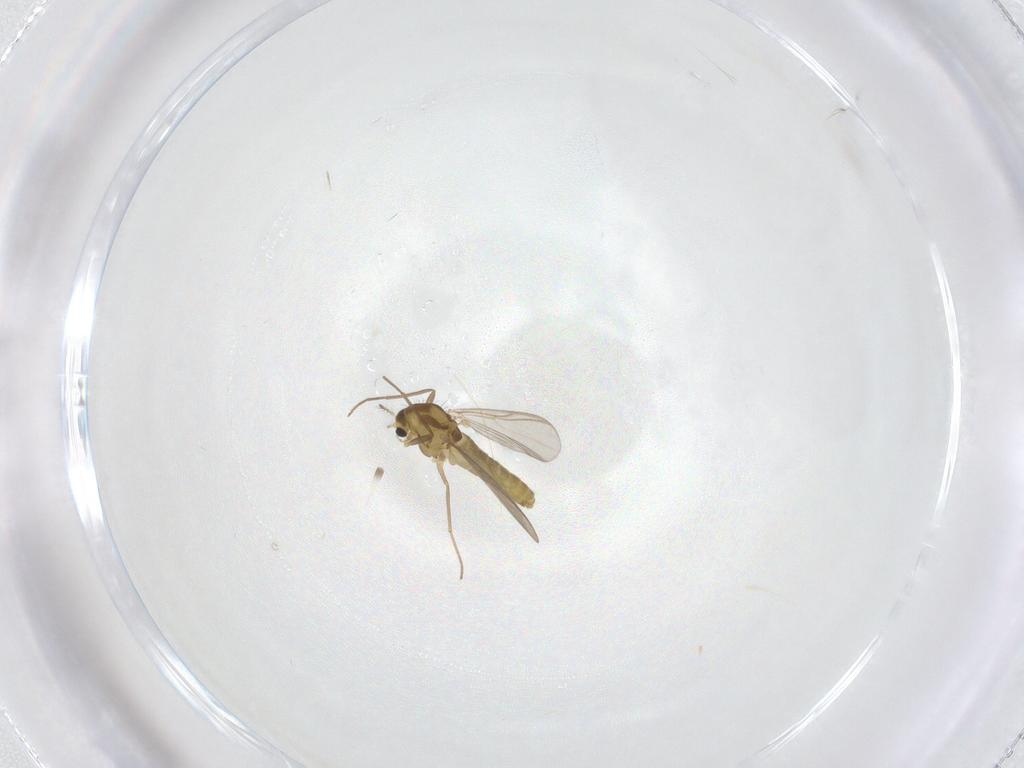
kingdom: Animalia
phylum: Arthropoda
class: Insecta
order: Diptera
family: Chironomidae
